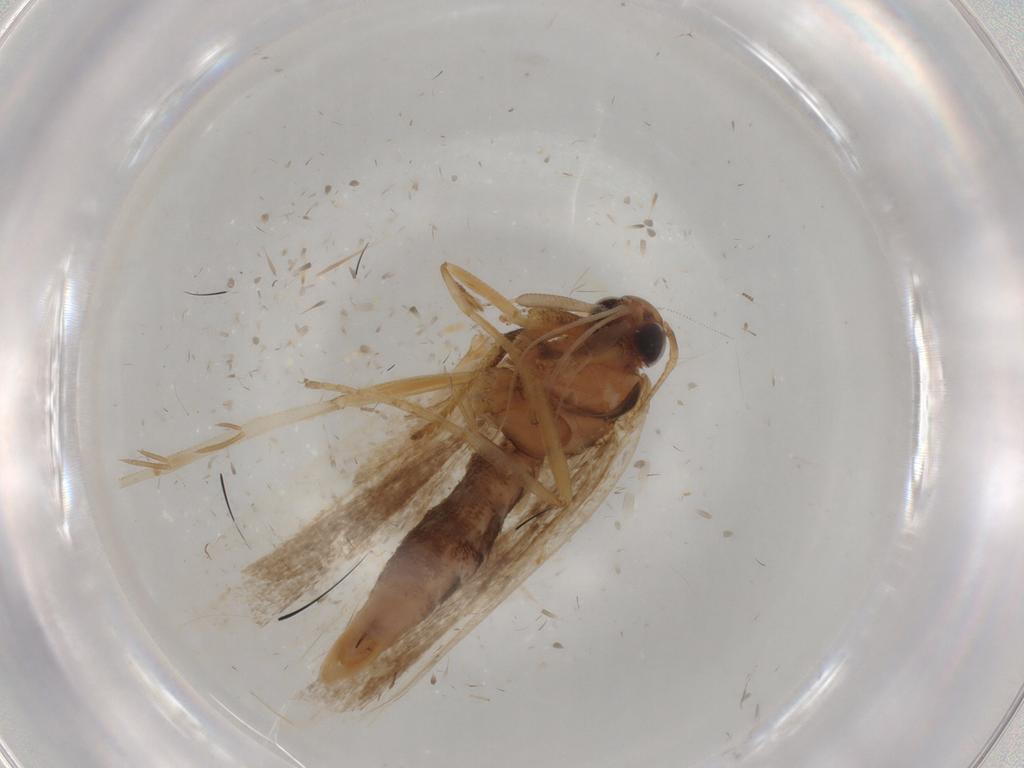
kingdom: Animalia
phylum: Arthropoda
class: Insecta
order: Lepidoptera
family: Gelechiidae
